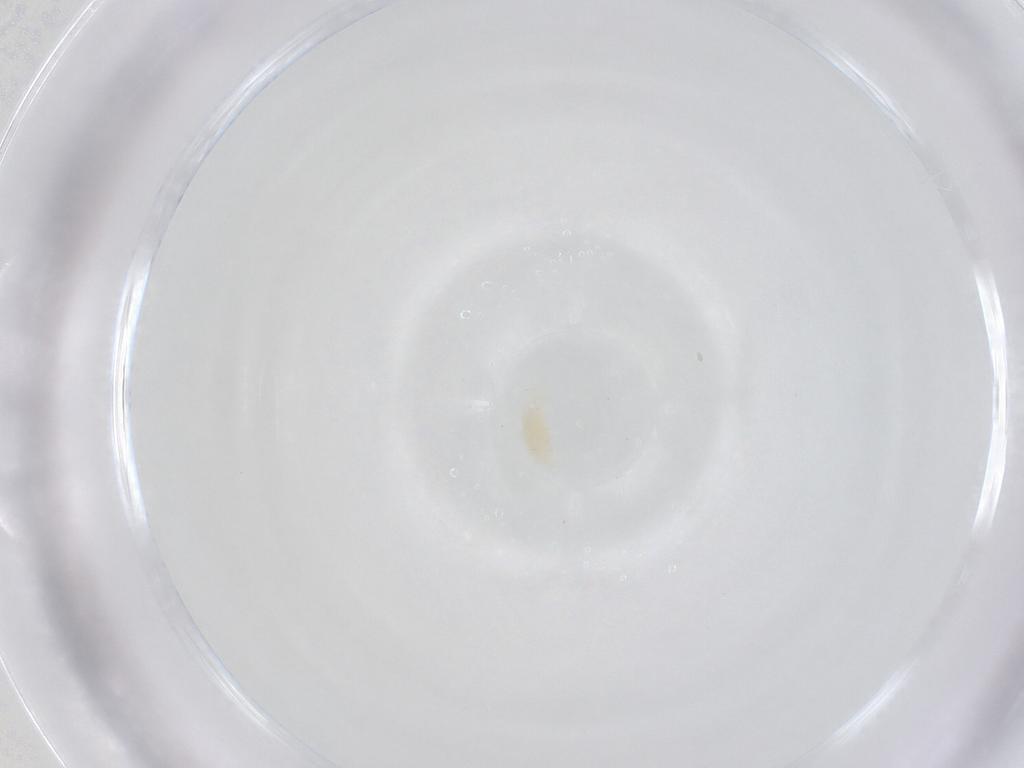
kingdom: Animalia
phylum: Arthropoda
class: Arachnida
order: Trombidiformes
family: Eupodidae
